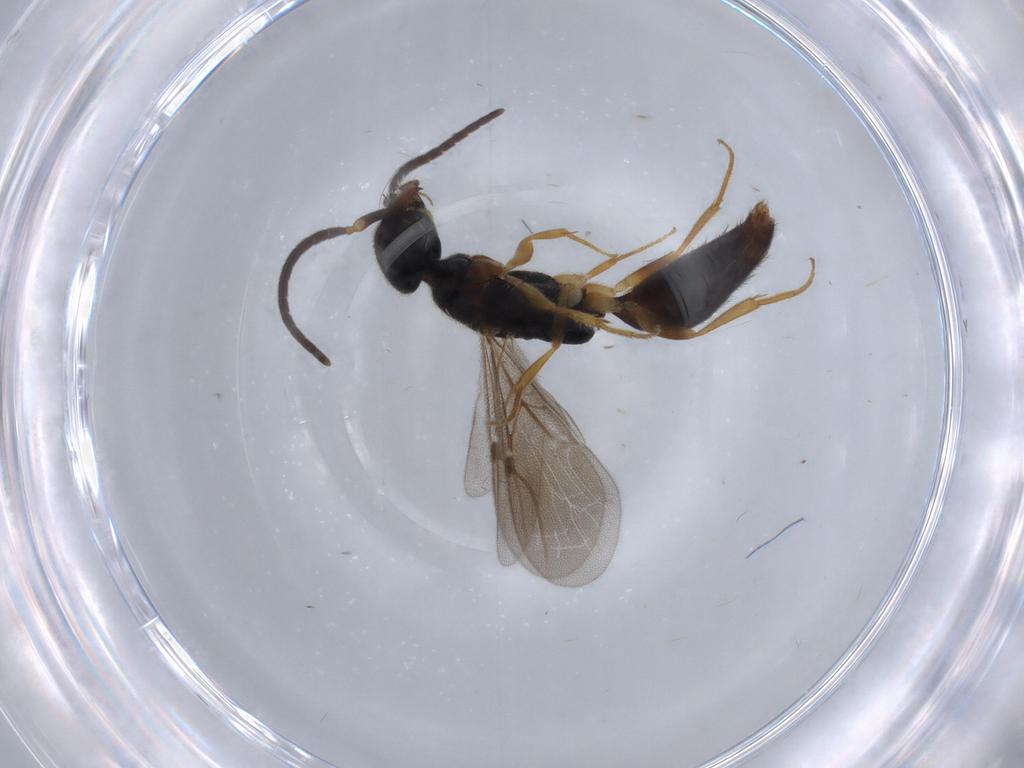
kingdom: Animalia
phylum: Arthropoda
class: Insecta
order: Hymenoptera
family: Bethylidae
